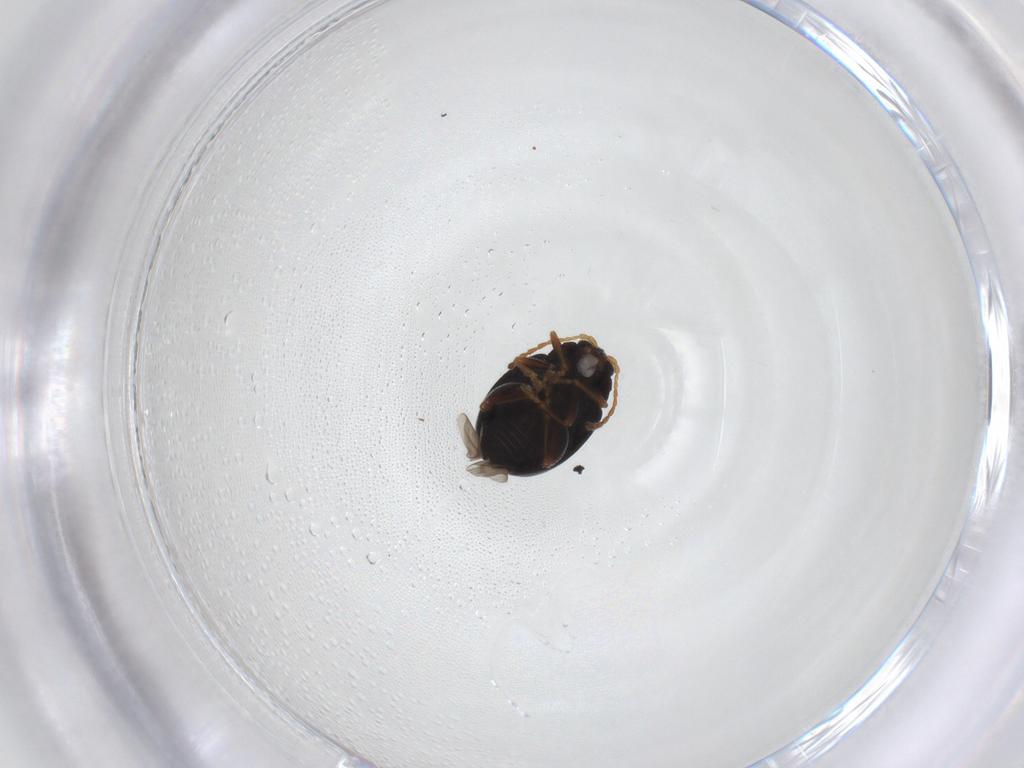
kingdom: Animalia
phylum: Arthropoda
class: Insecta
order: Coleoptera
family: Chrysomelidae
